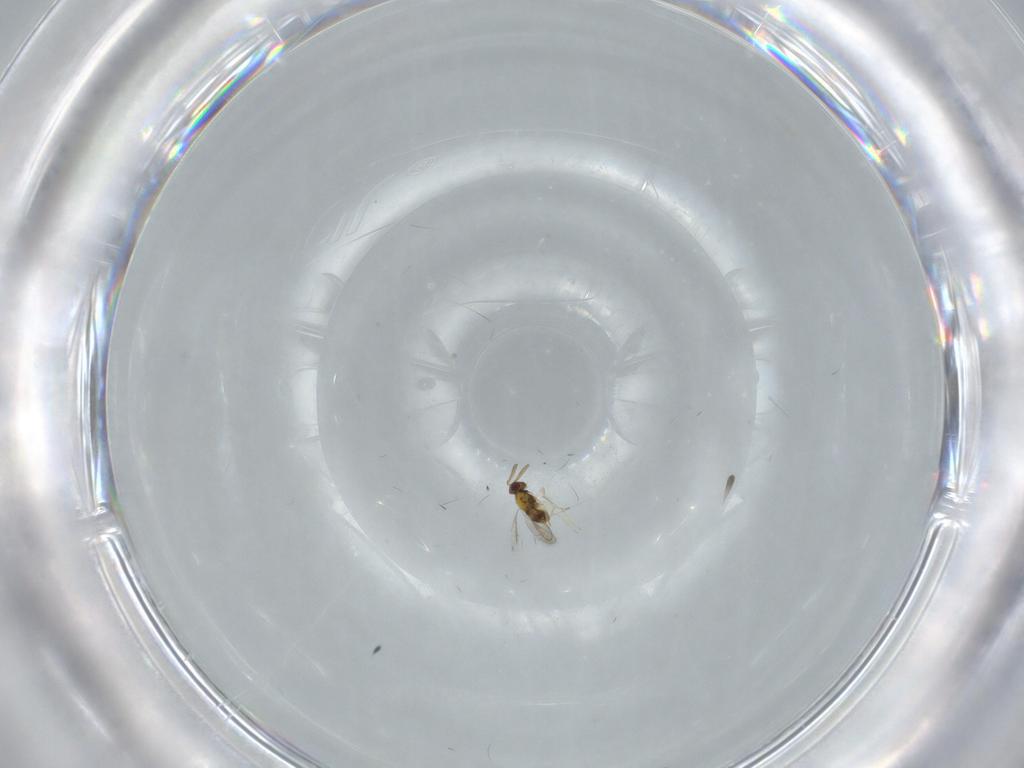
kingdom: Animalia
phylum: Arthropoda
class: Insecta
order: Hymenoptera
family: Aphelinidae
